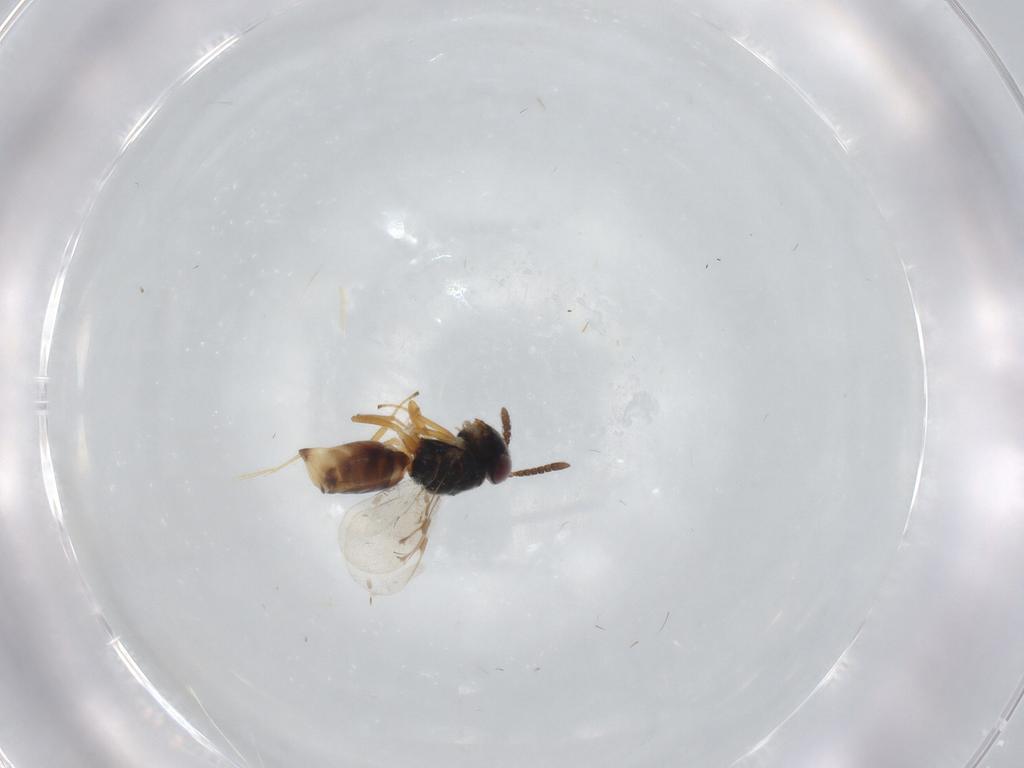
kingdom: Animalia
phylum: Arthropoda
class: Insecta
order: Hymenoptera
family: Pteromalidae
